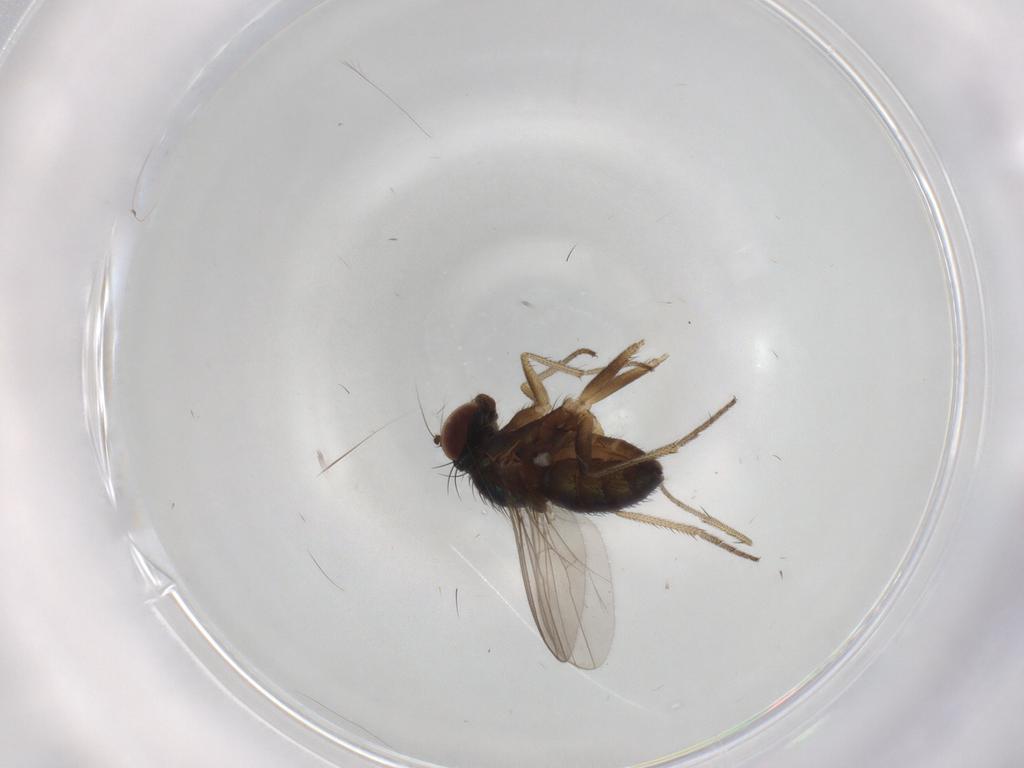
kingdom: Animalia
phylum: Arthropoda
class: Insecta
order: Diptera
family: Dolichopodidae
